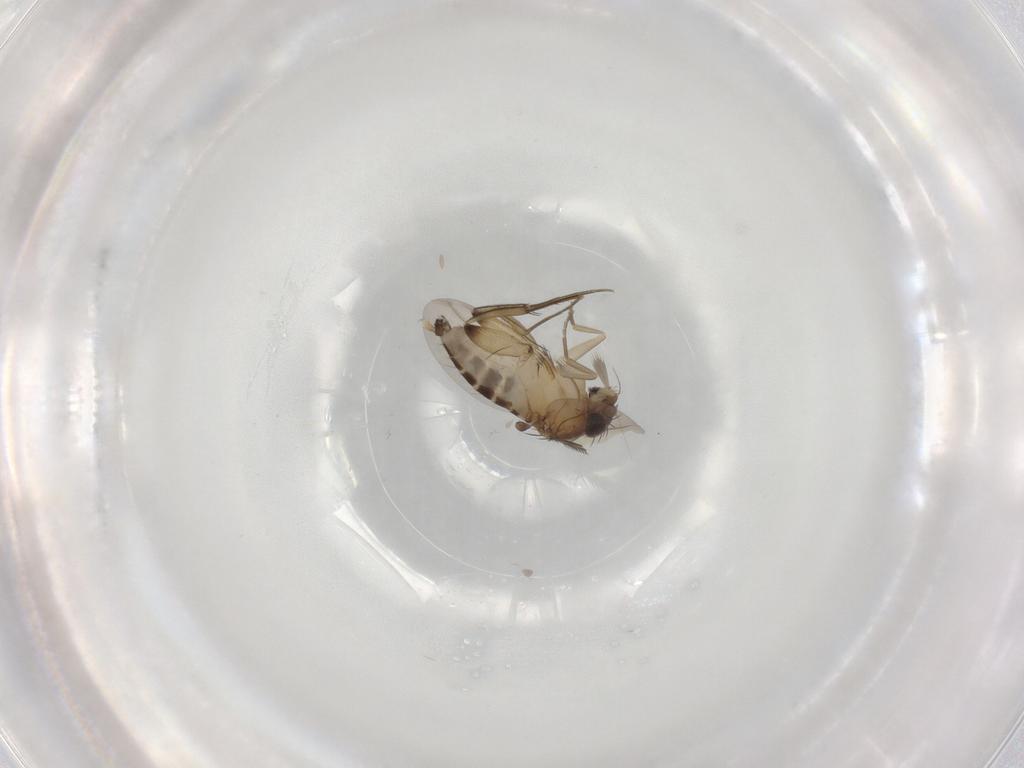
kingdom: Animalia
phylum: Arthropoda
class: Insecta
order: Diptera
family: Phoridae
